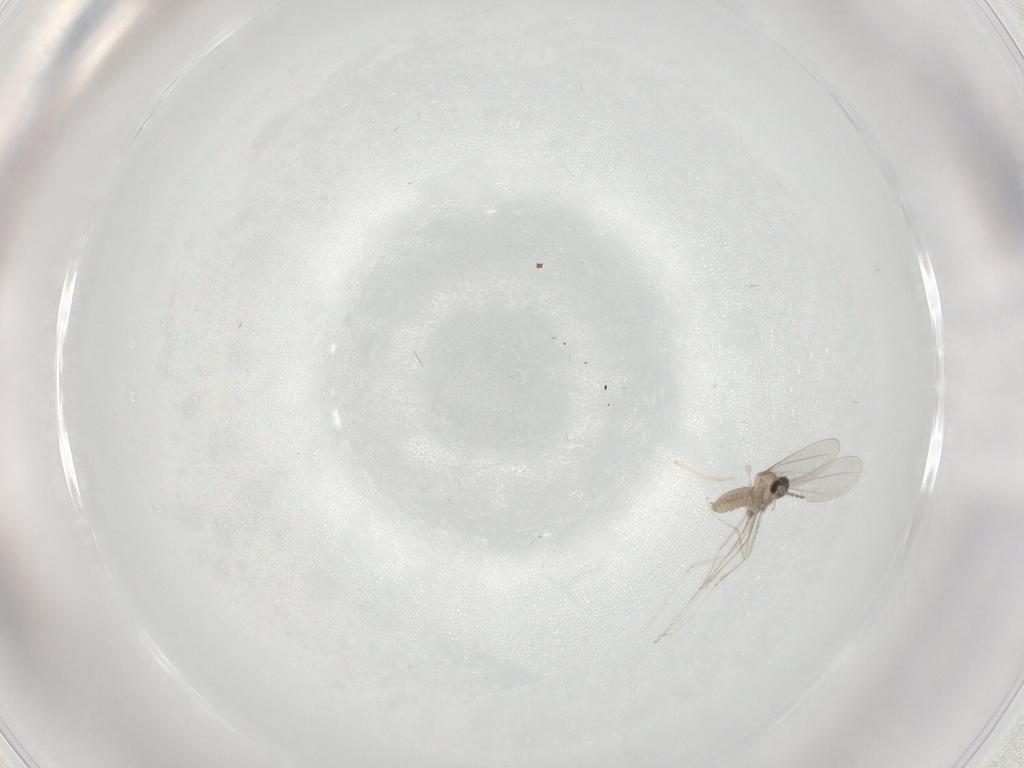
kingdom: Animalia
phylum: Arthropoda
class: Insecta
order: Diptera
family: Cecidomyiidae
